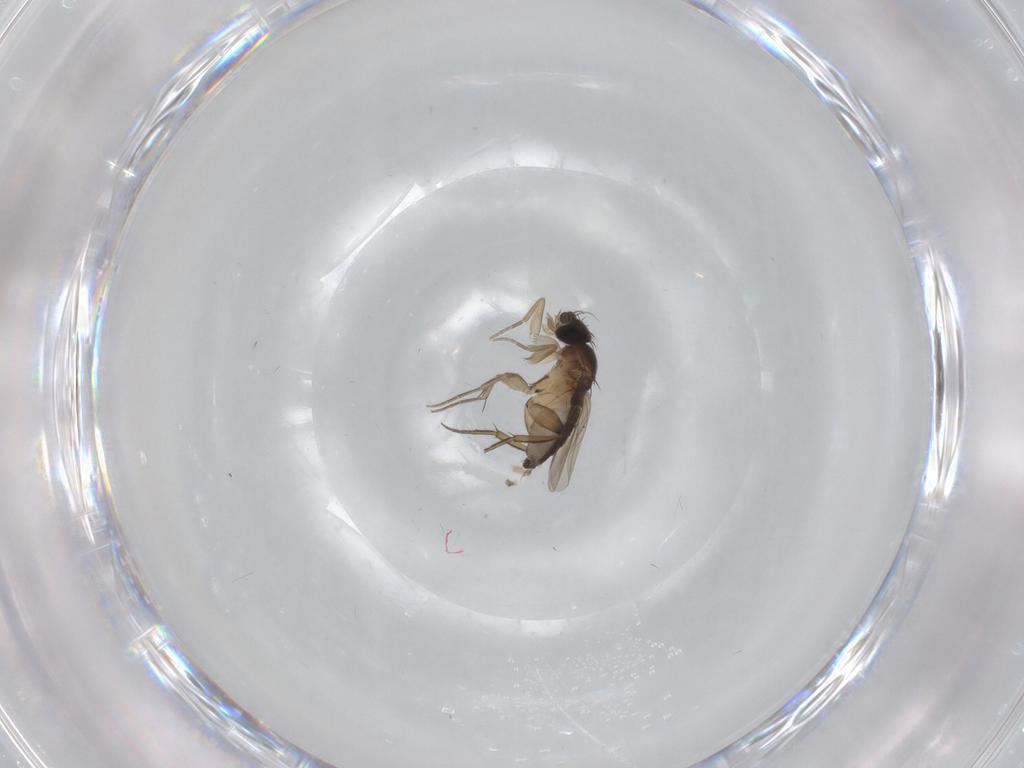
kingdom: Animalia
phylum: Arthropoda
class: Insecta
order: Diptera
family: Phoridae
